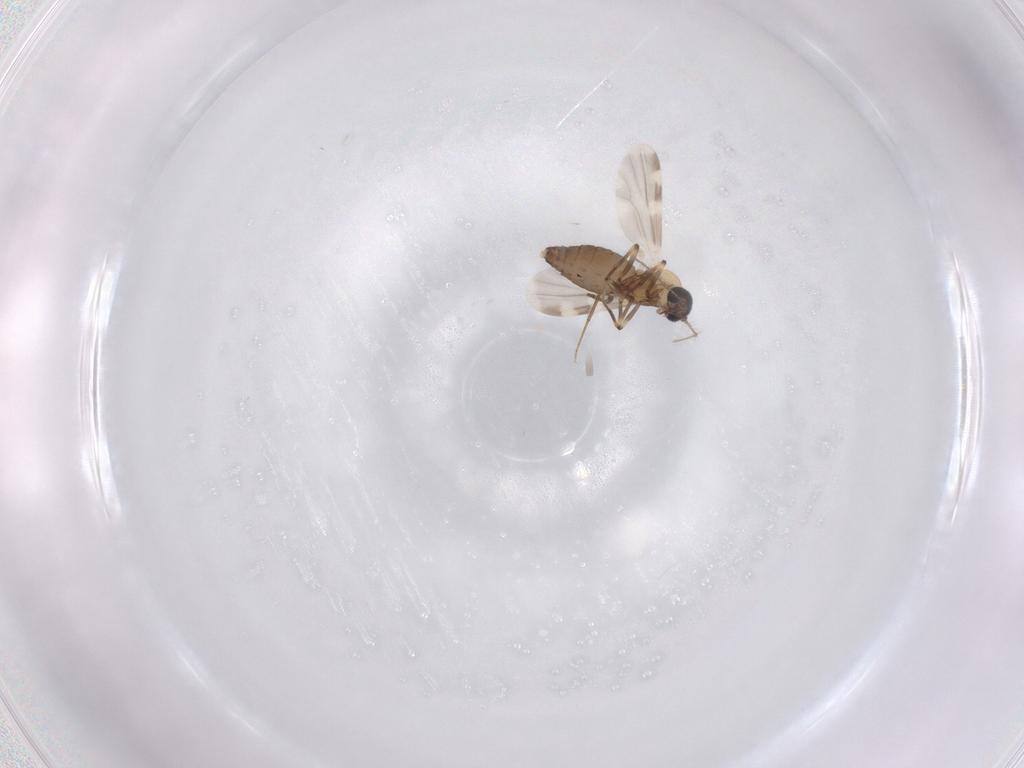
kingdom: Animalia
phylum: Arthropoda
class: Insecta
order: Diptera
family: Ceratopogonidae
